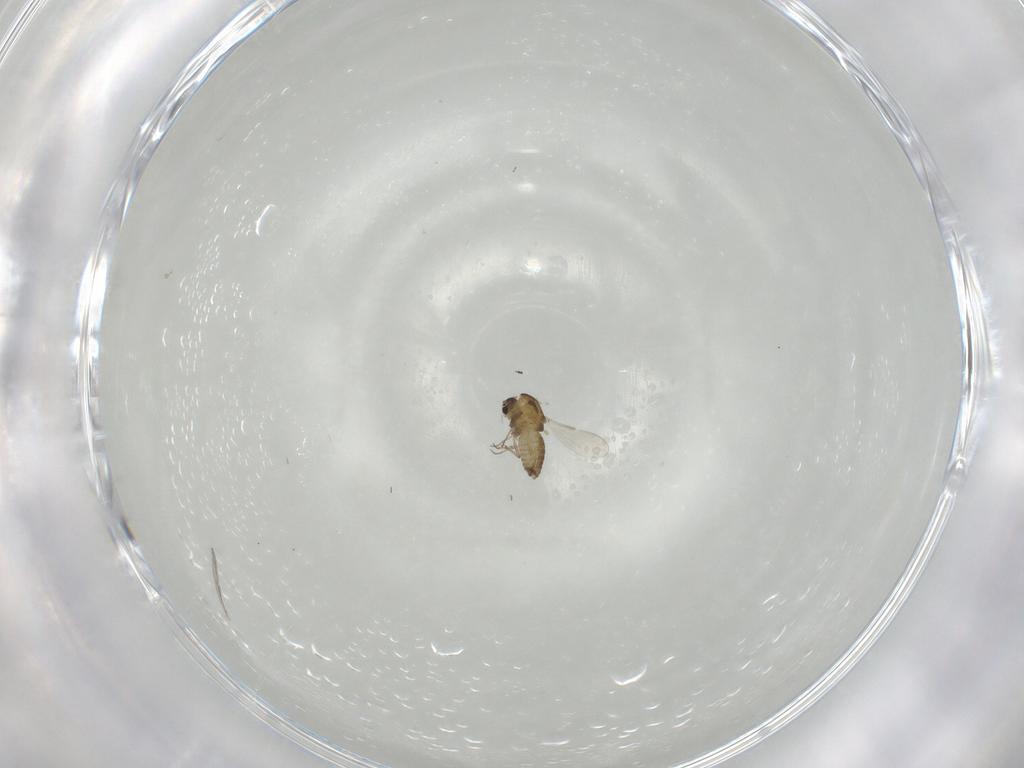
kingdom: Animalia
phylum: Arthropoda
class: Insecta
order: Diptera
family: Chironomidae
